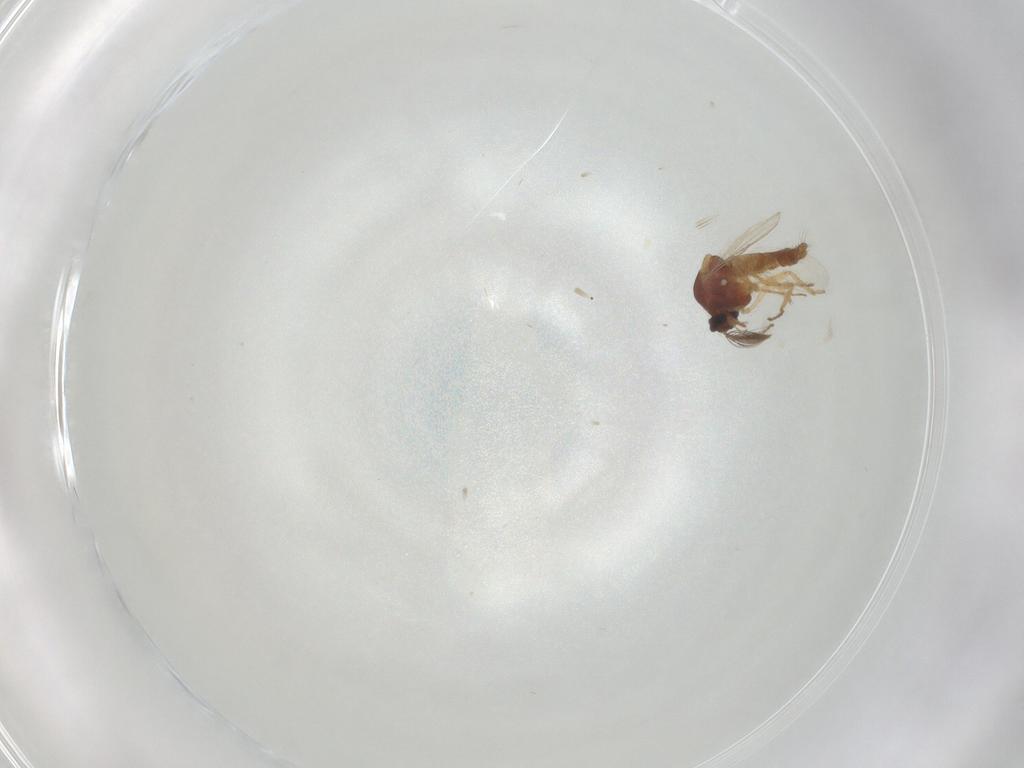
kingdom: Animalia
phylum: Arthropoda
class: Insecta
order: Diptera
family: Ceratopogonidae
